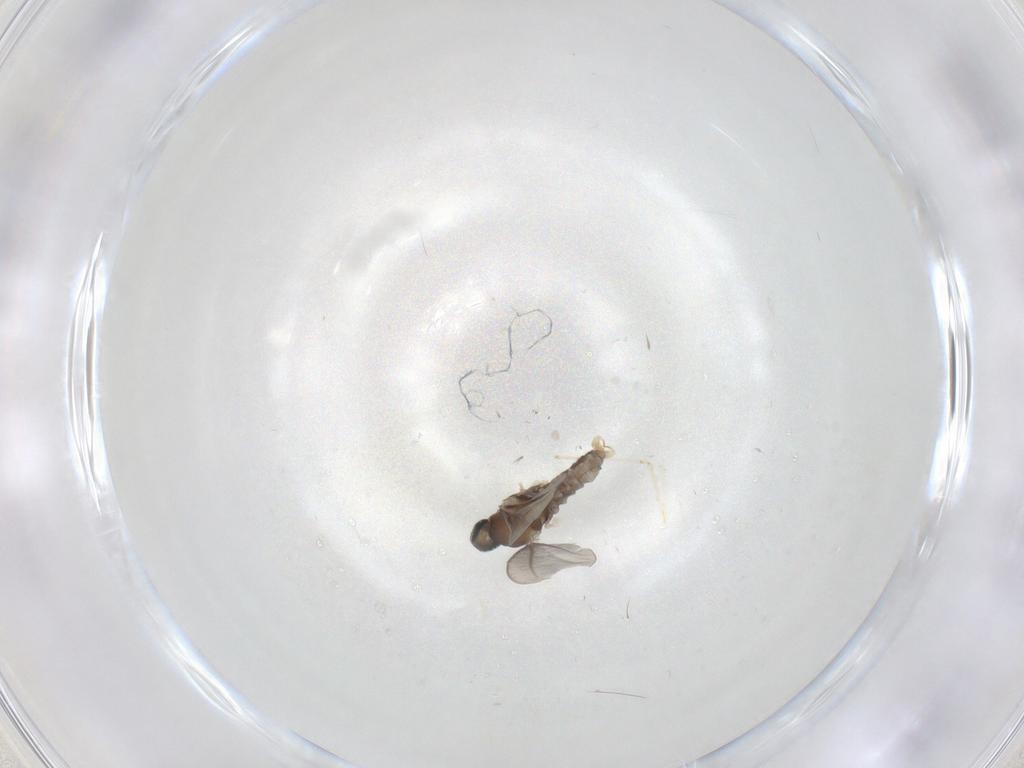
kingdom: Animalia
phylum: Arthropoda
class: Insecta
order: Diptera
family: Cecidomyiidae
